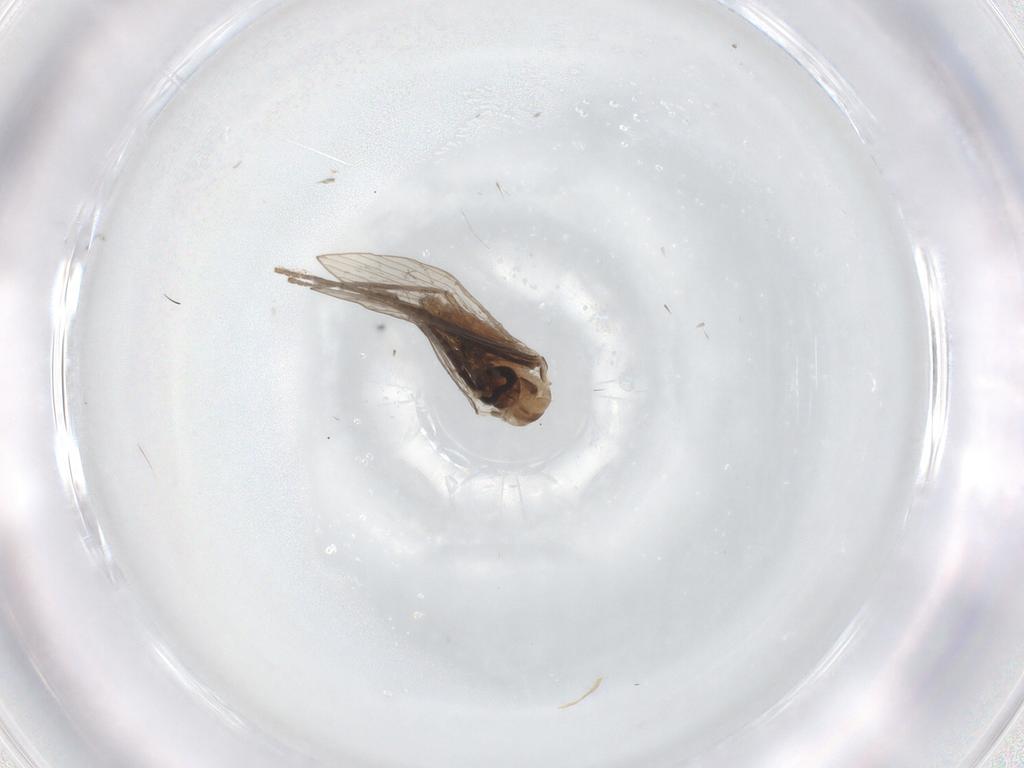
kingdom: Animalia
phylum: Arthropoda
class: Insecta
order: Diptera
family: Psychodidae
